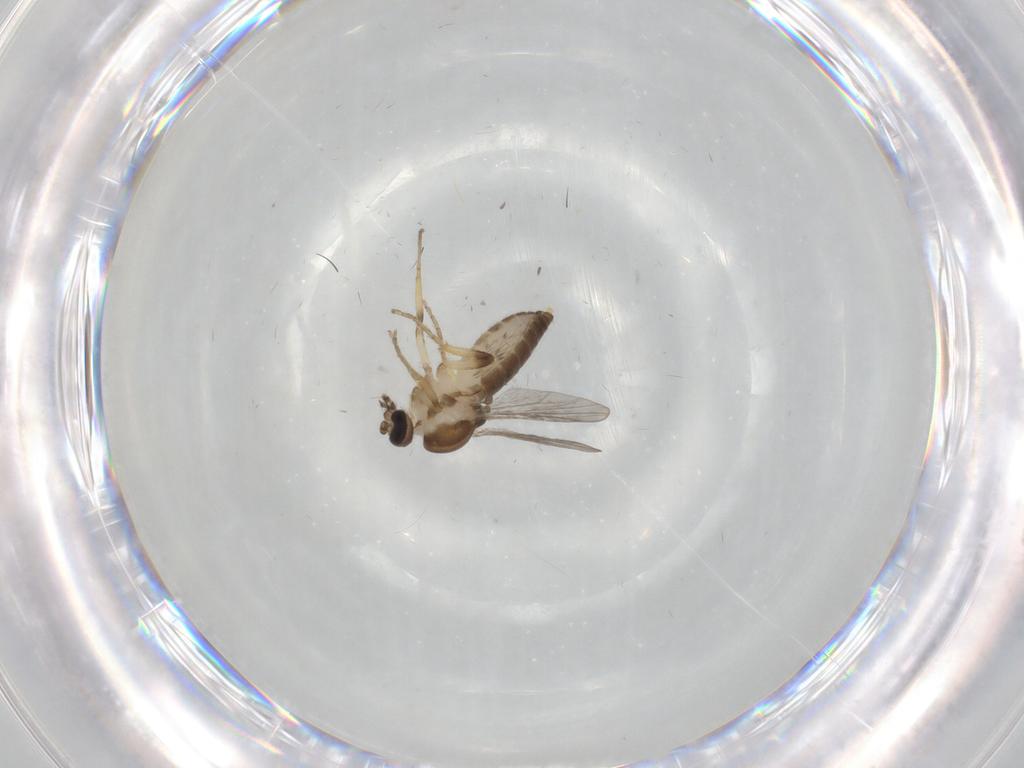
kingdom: Animalia
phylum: Arthropoda
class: Insecta
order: Diptera
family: Ceratopogonidae
